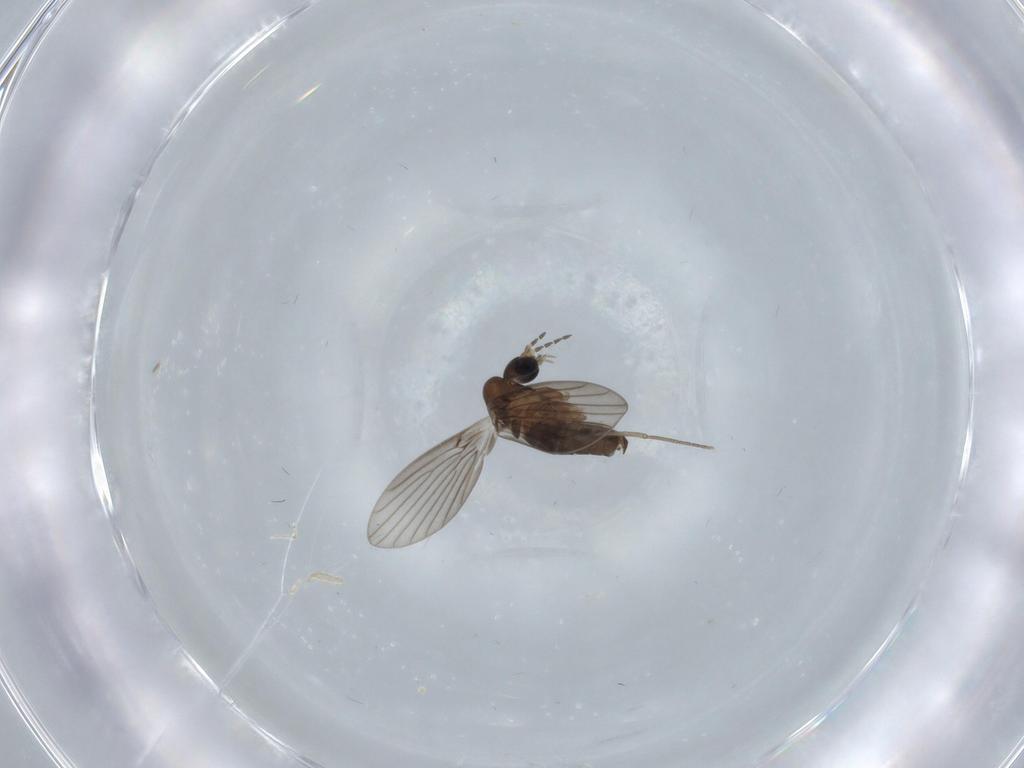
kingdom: Animalia
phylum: Arthropoda
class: Insecta
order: Diptera
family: Psychodidae
